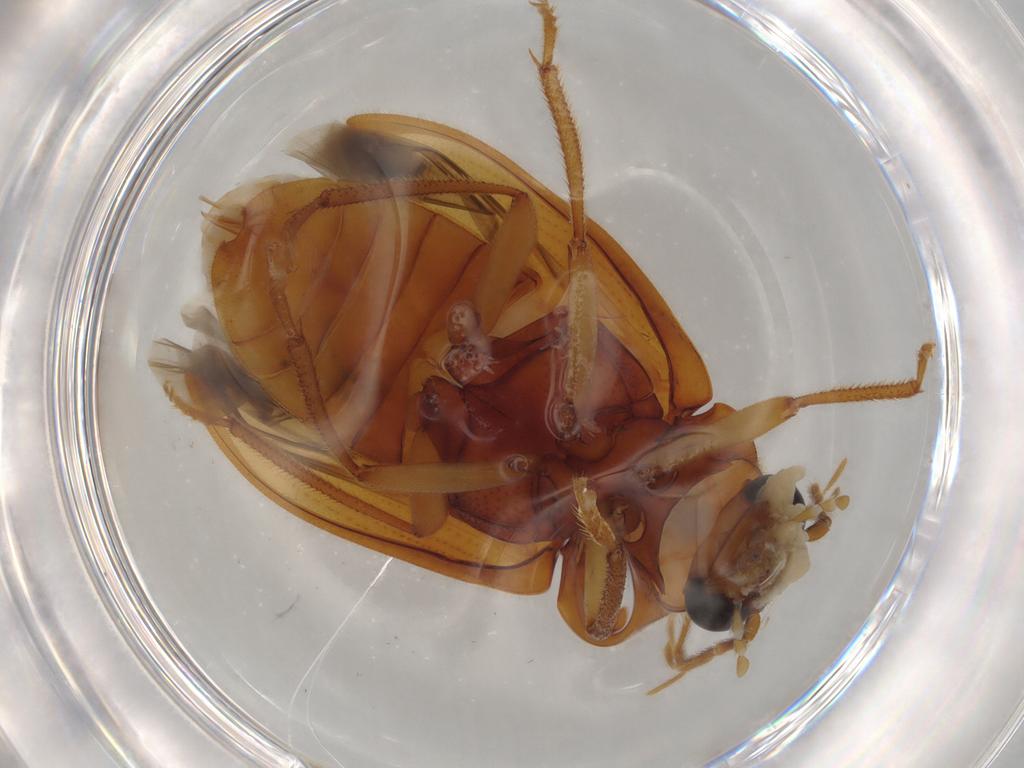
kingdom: Animalia
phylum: Arthropoda
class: Insecta
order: Coleoptera
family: Ptilodactylidae
